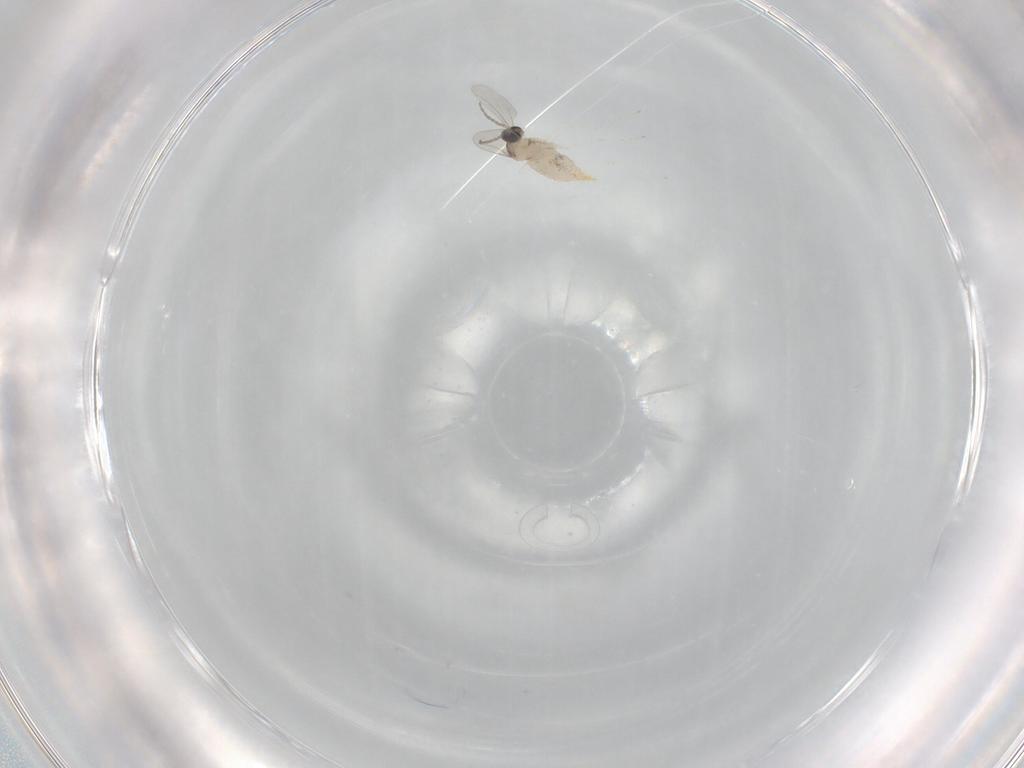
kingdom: Animalia
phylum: Arthropoda
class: Insecta
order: Diptera
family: Cecidomyiidae
